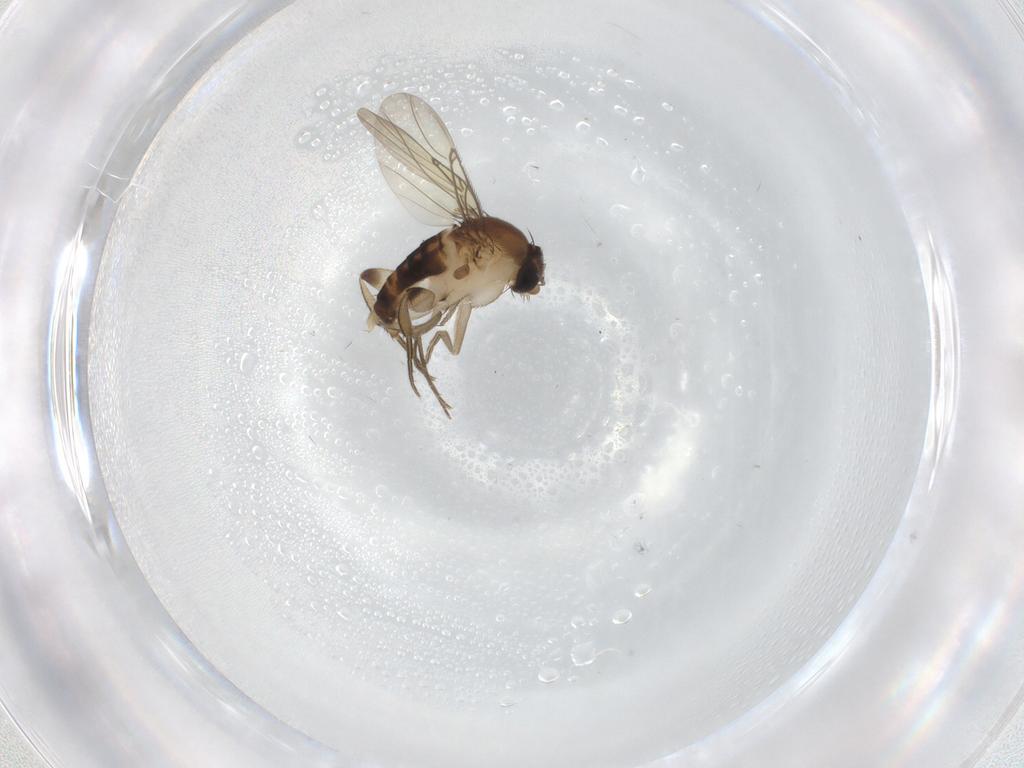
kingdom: Animalia
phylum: Arthropoda
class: Insecta
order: Diptera
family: Phoridae
